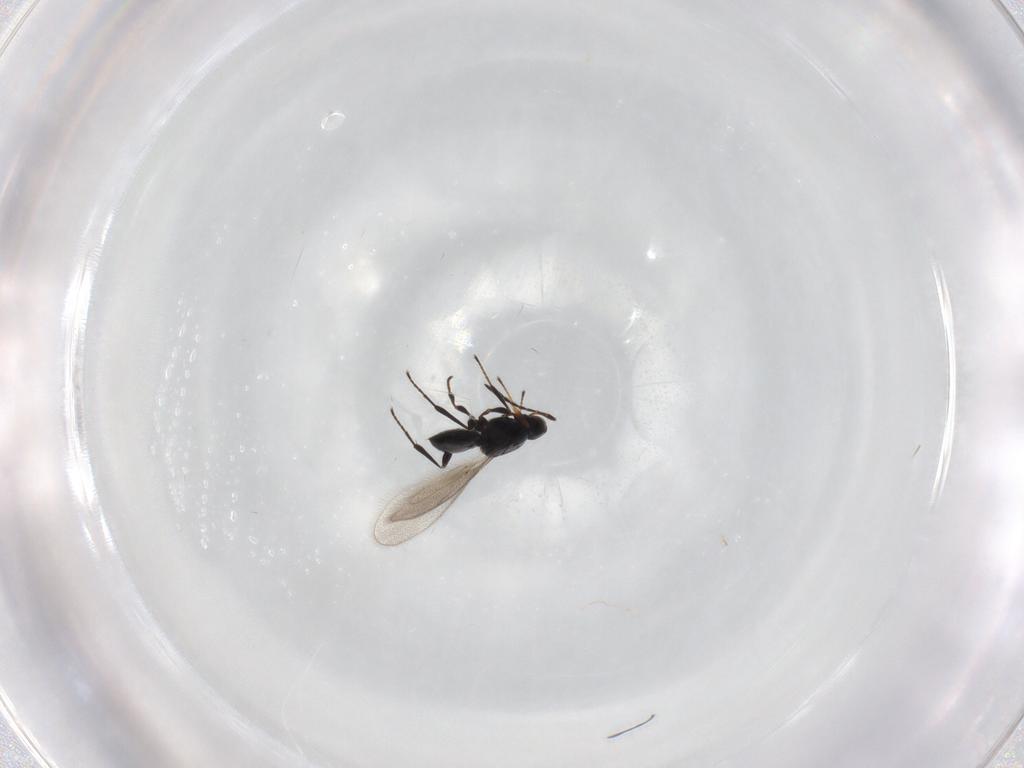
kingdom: Animalia
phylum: Arthropoda
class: Insecta
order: Hymenoptera
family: Platygastridae
